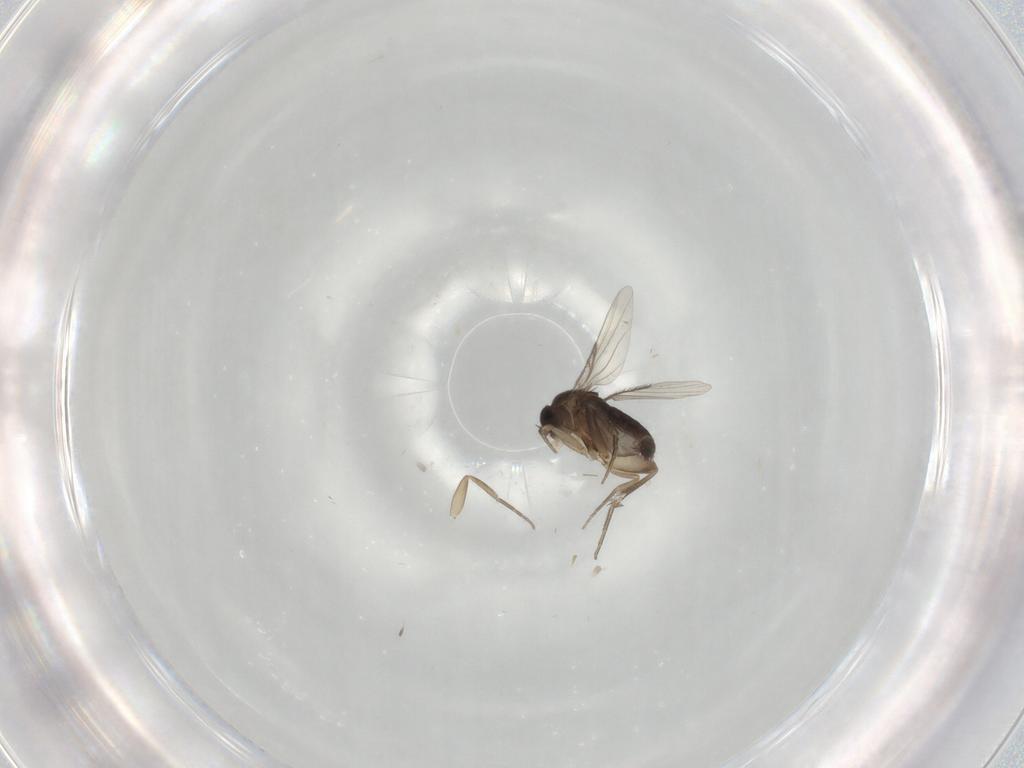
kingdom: Animalia
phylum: Arthropoda
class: Insecta
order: Diptera
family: Phoridae
